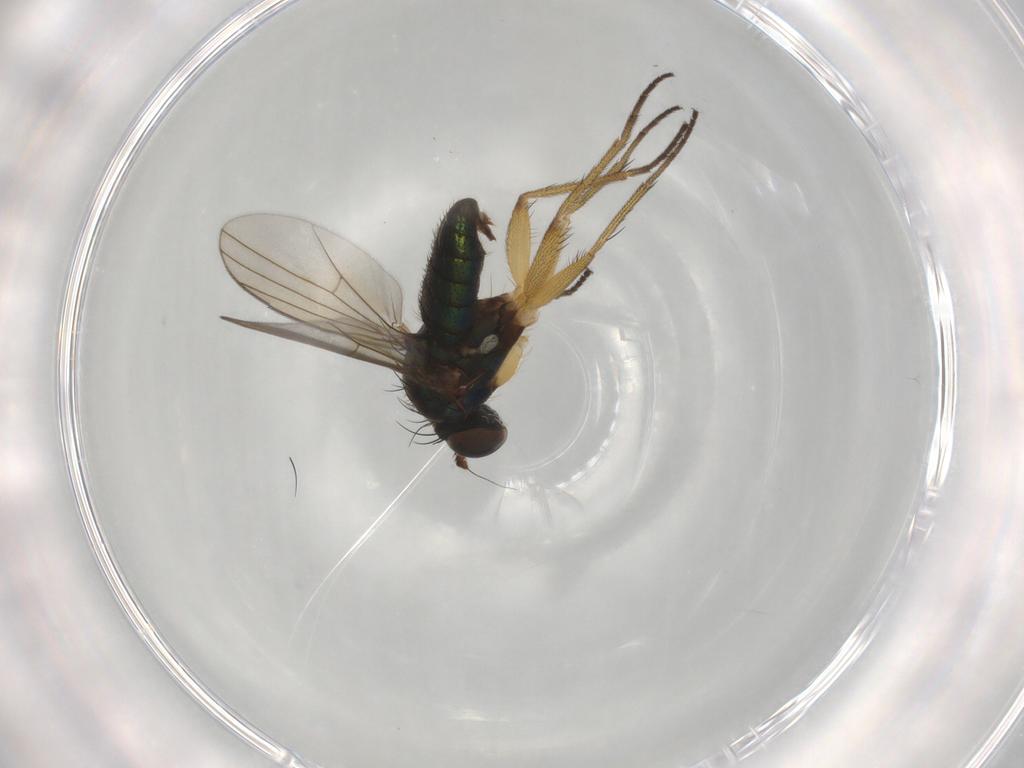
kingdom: Animalia
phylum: Arthropoda
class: Insecta
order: Diptera
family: Dolichopodidae
